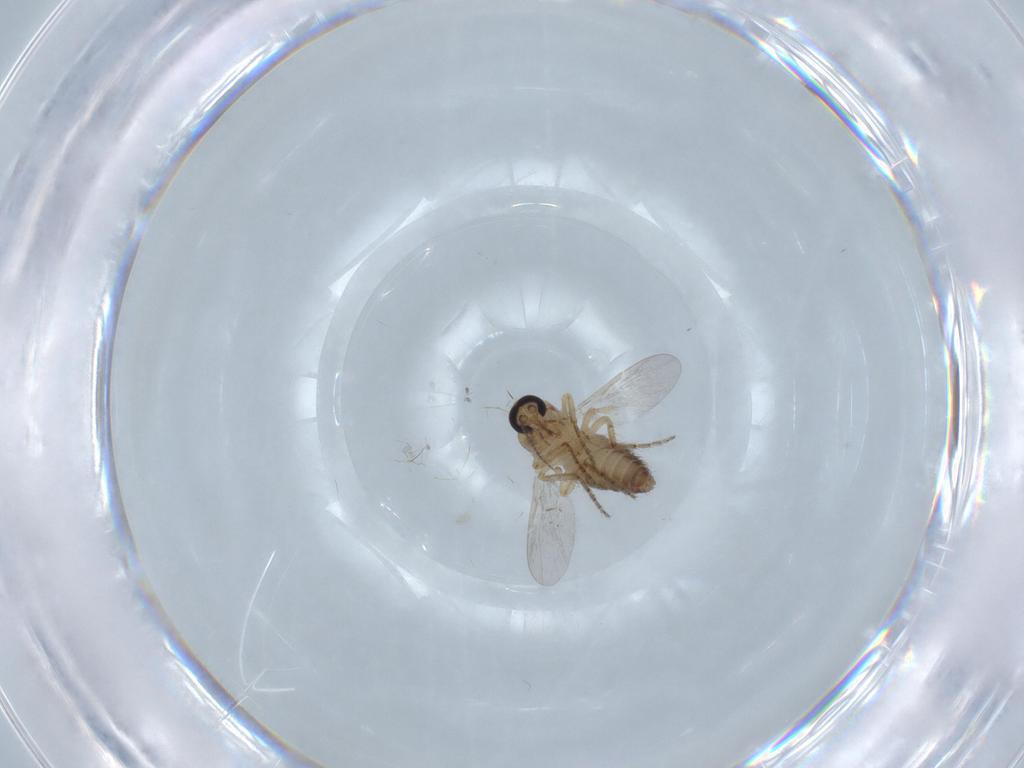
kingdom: Animalia
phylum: Arthropoda
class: Insecta
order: Diptera
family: Ceratopogonidae
